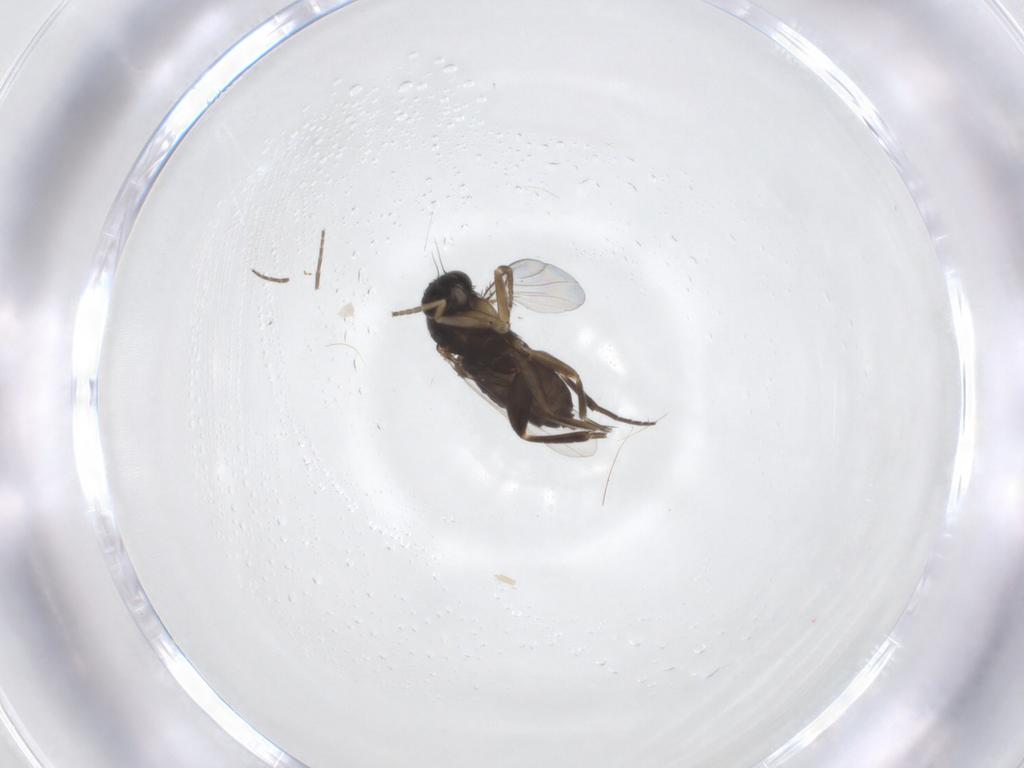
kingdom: Animalia
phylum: Arthropoda
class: Insecta
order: Diptera
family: Phoridae
